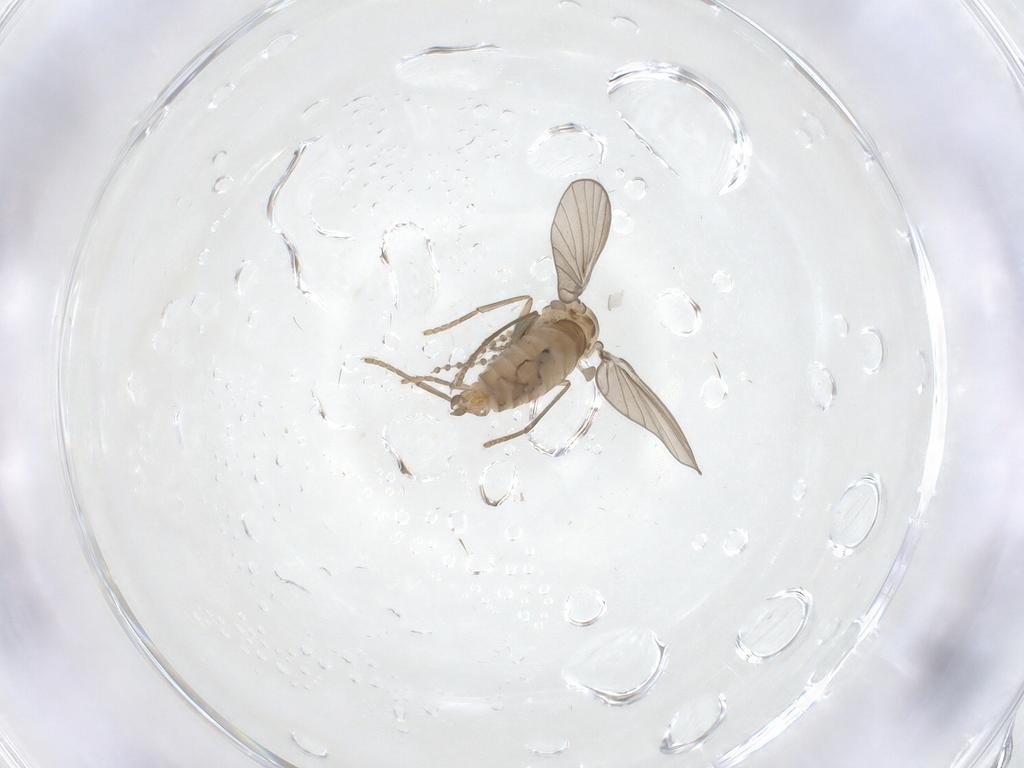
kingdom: Animalia
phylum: Arthropoda
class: Insecta
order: Diptera
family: Psychodidae
